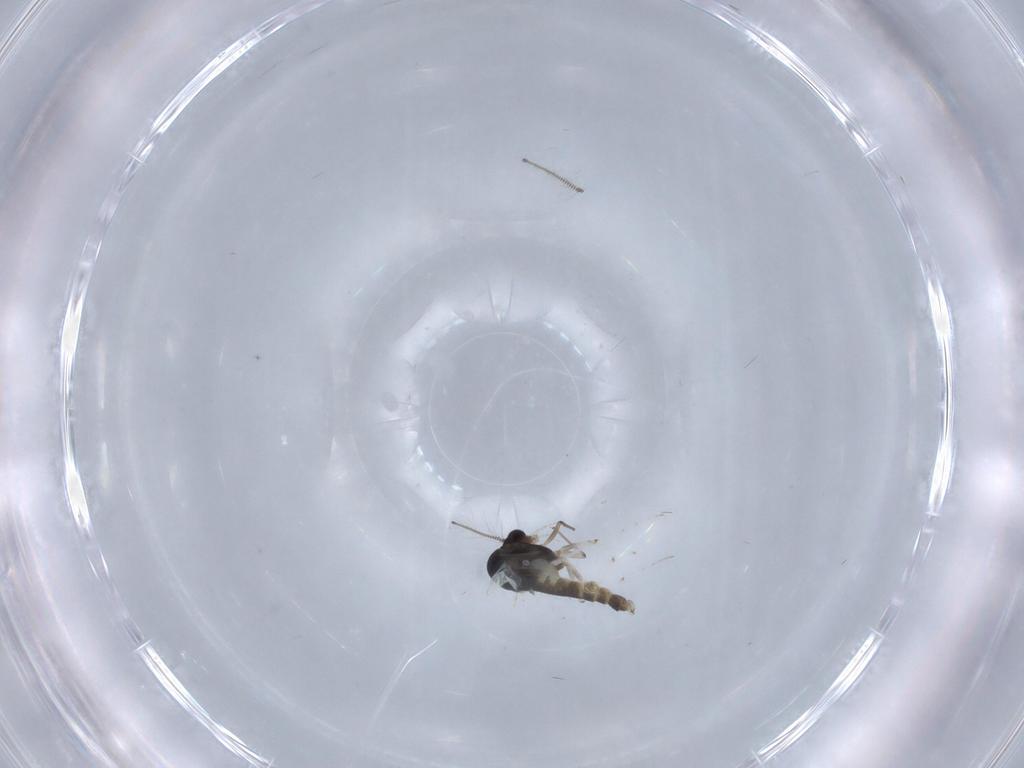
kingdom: Animalia
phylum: Arthropoda
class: Insecta
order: Diptera
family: Chironomidae
